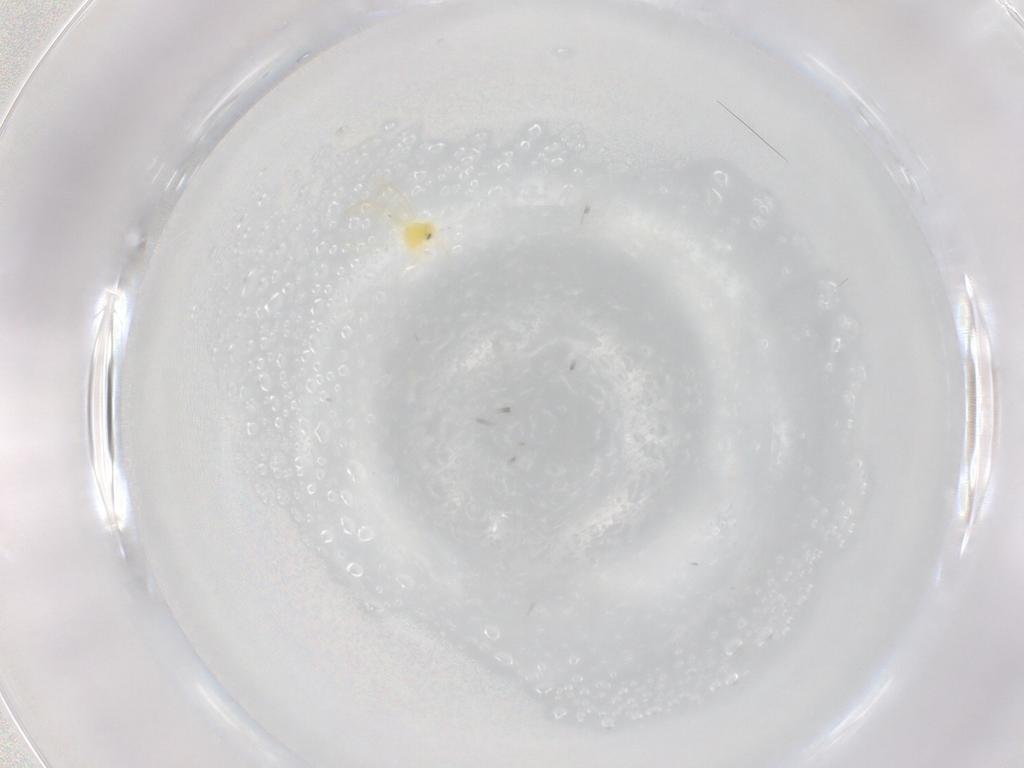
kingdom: Animalia
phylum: Arthropoda
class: Insecta
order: Hemiptera
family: Aleyrodidae
